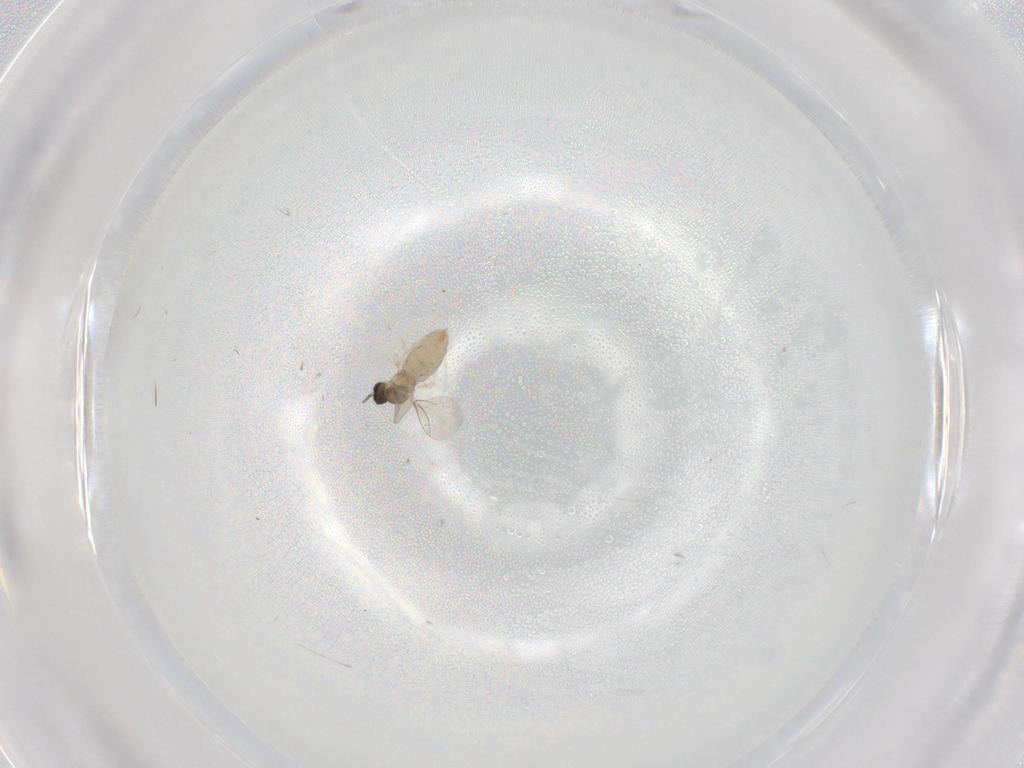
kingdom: Animalia
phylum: Arthropoda
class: Insecta
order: Diptera
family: Cecidomyiidae
